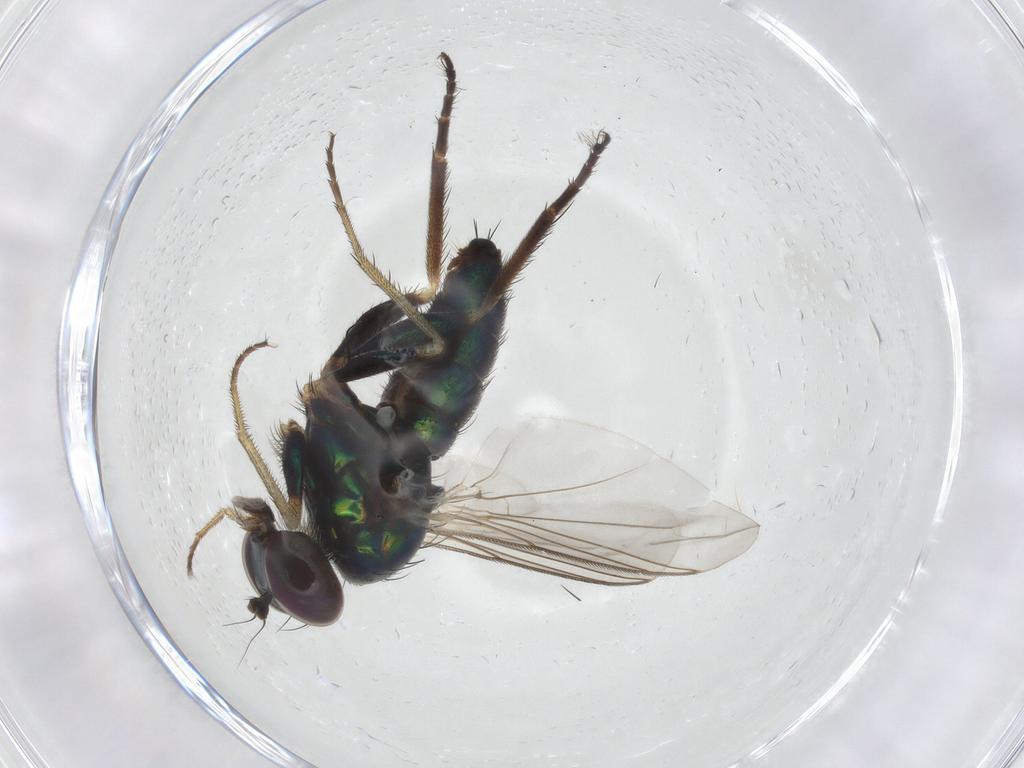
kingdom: Animalia
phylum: Arthropoda
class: Insecta
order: Diptera
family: Dolichopodidae
